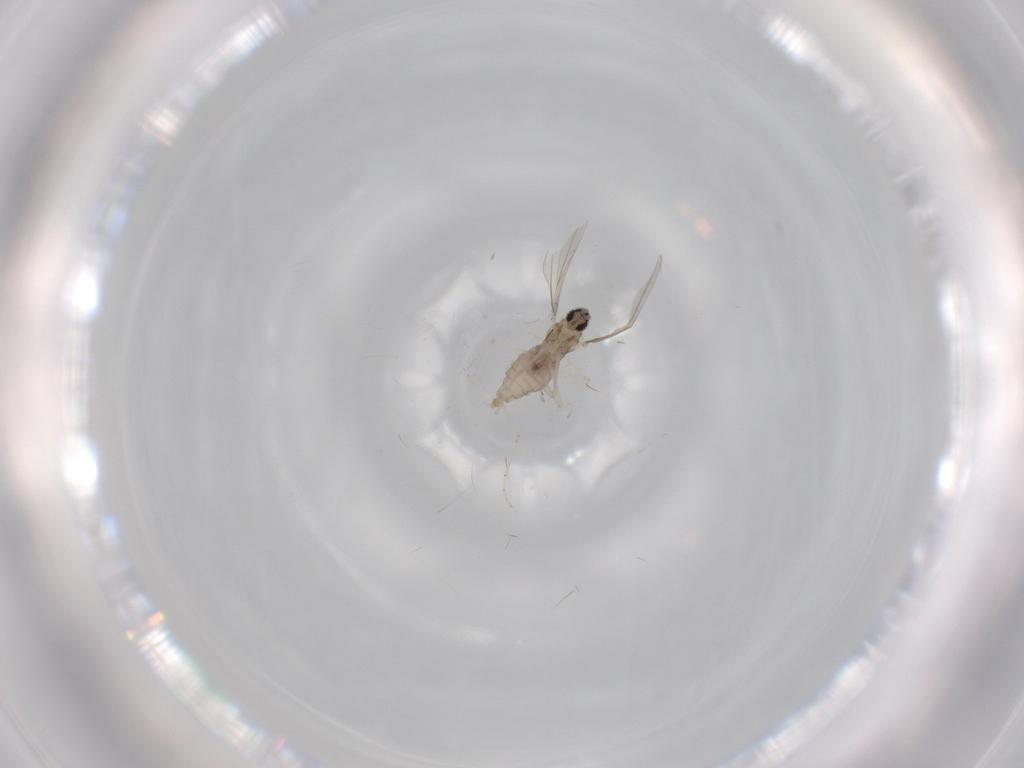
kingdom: Animalia
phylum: Arthropoda
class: Insecta
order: Diptera
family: Cecidomyiidae
